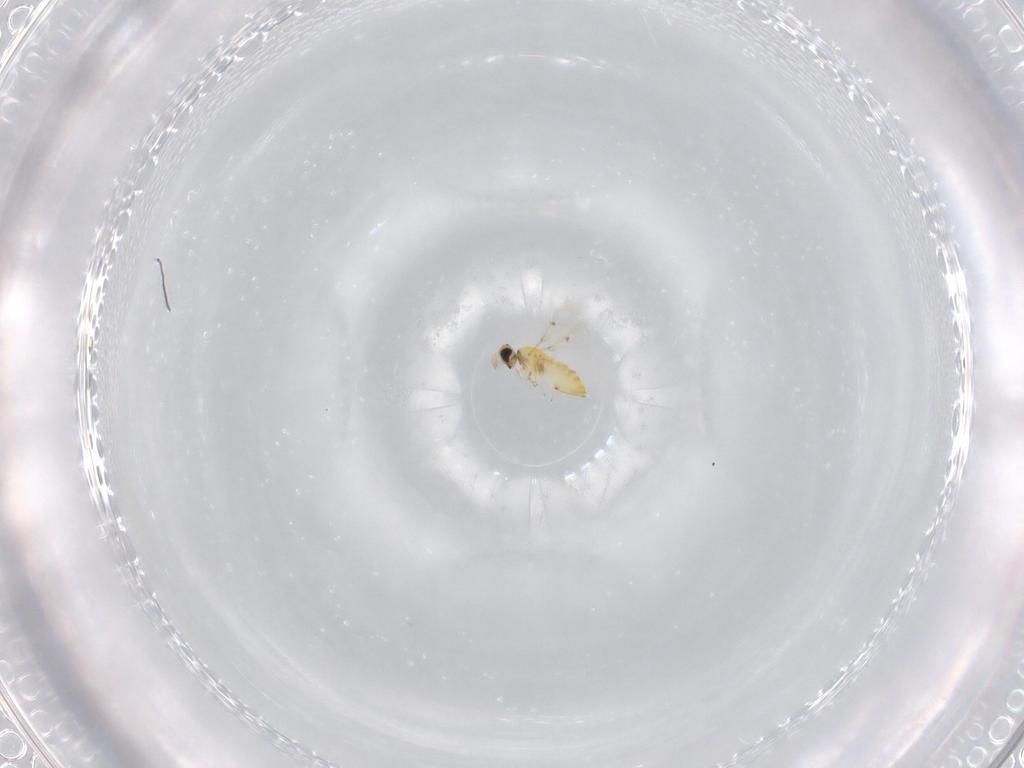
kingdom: Animalia
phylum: Arthropoda
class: Insecta
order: Hymenoptera
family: Trichogrammatidae
